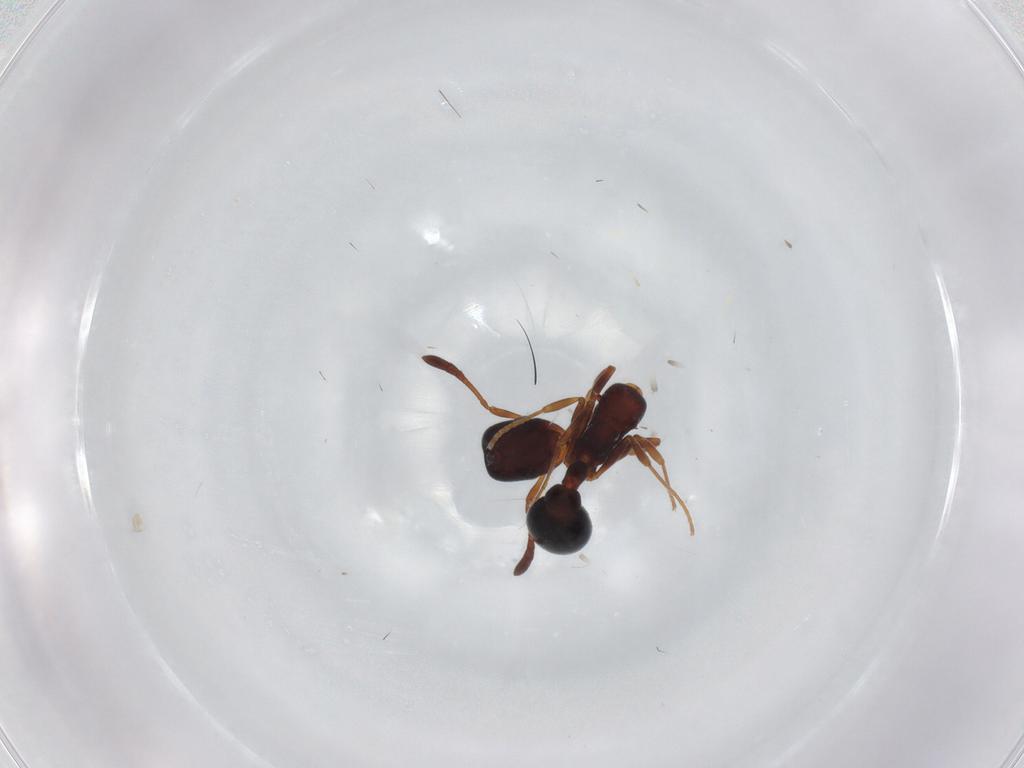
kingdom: Animalia
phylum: Arthropoda
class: Insecta
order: Hymenoptera
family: Formicidae
